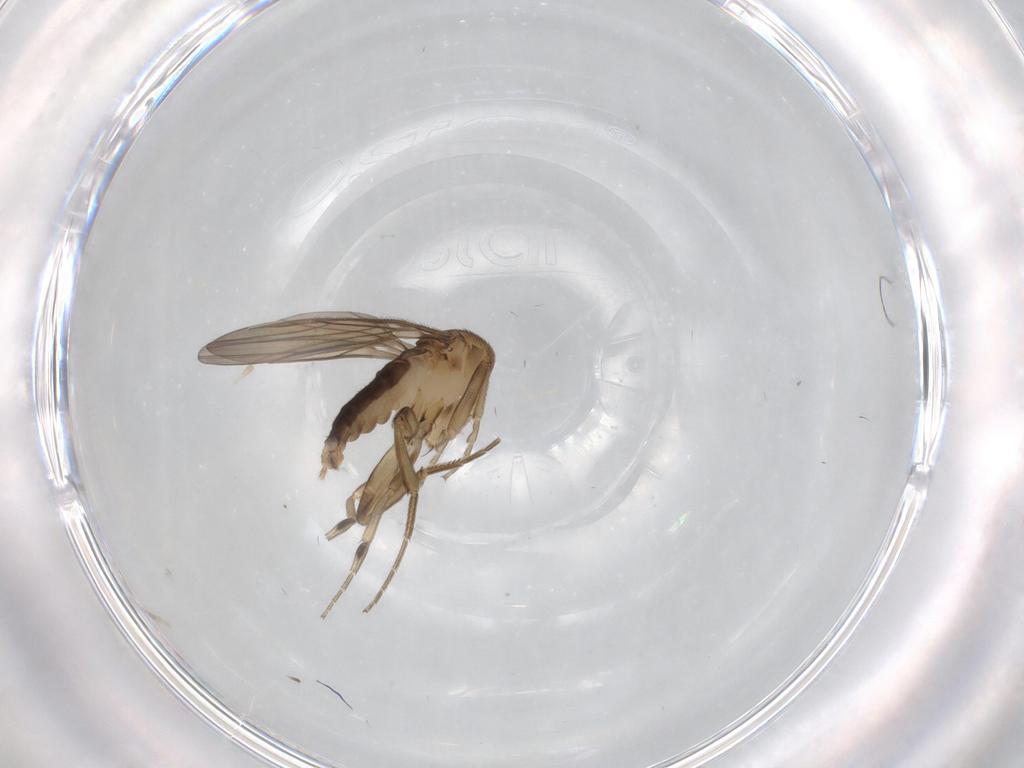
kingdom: Animalia
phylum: Arthropoda
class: Insecta
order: Diptera
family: Phoridae
